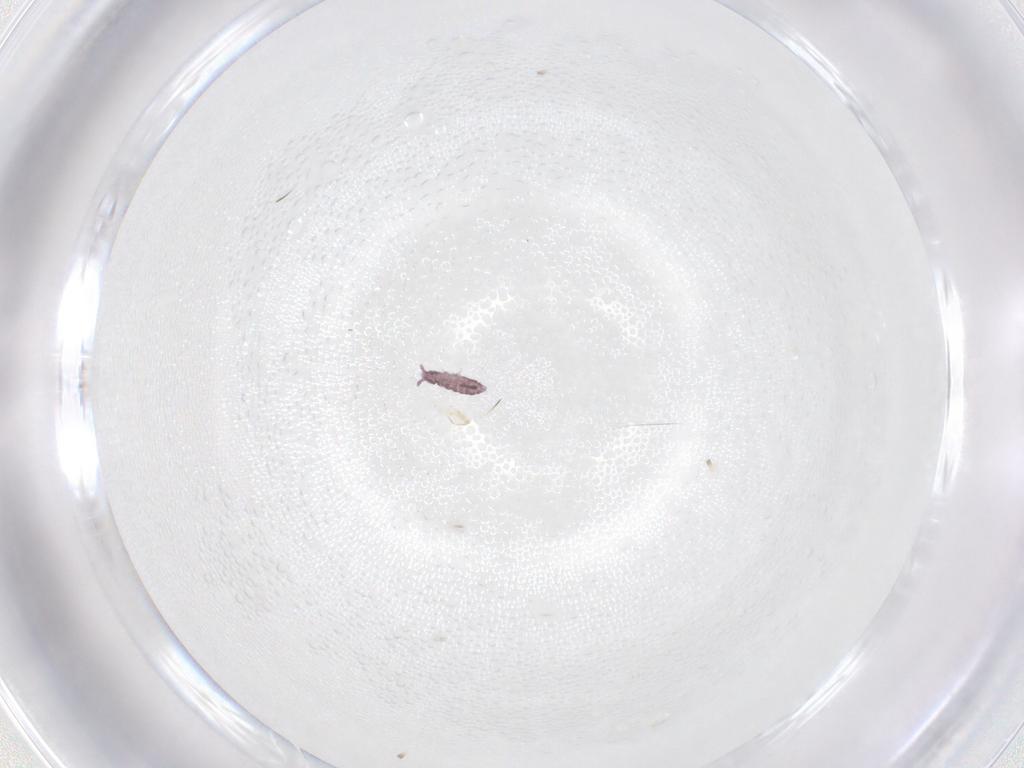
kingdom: Animalia
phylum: Arthropoda
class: Collembola
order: Poduromorpha
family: Hypogastruridae
